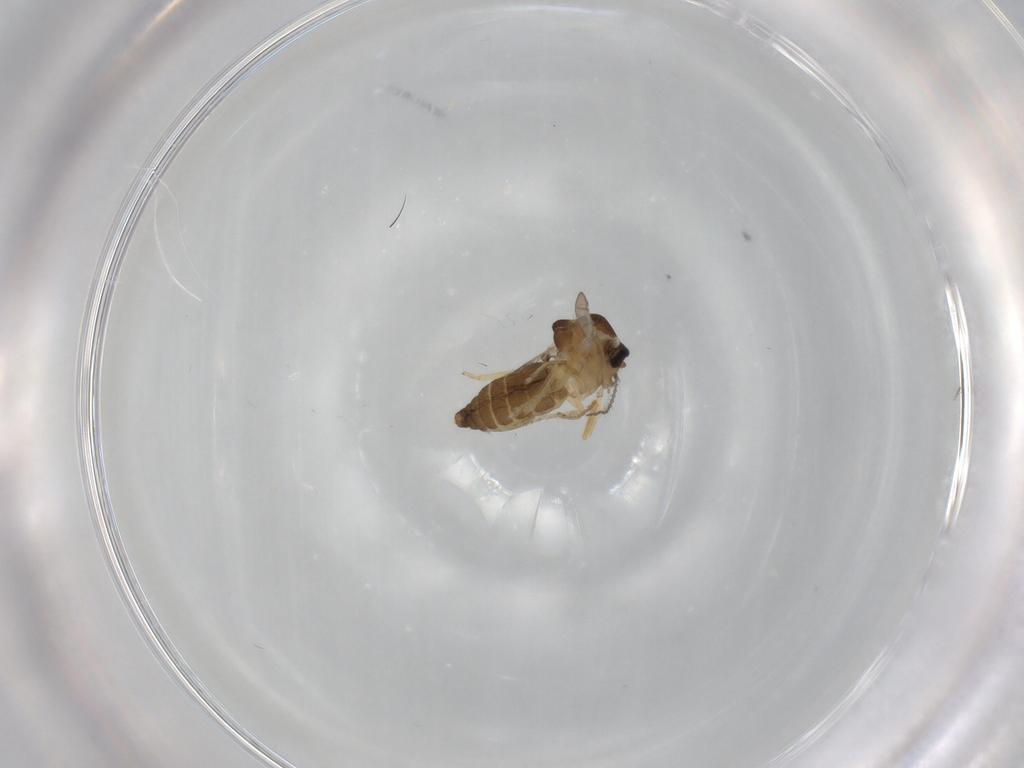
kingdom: Animalia
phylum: Arthropoda
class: Insecta
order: Diptera
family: Ceratopogonidae
